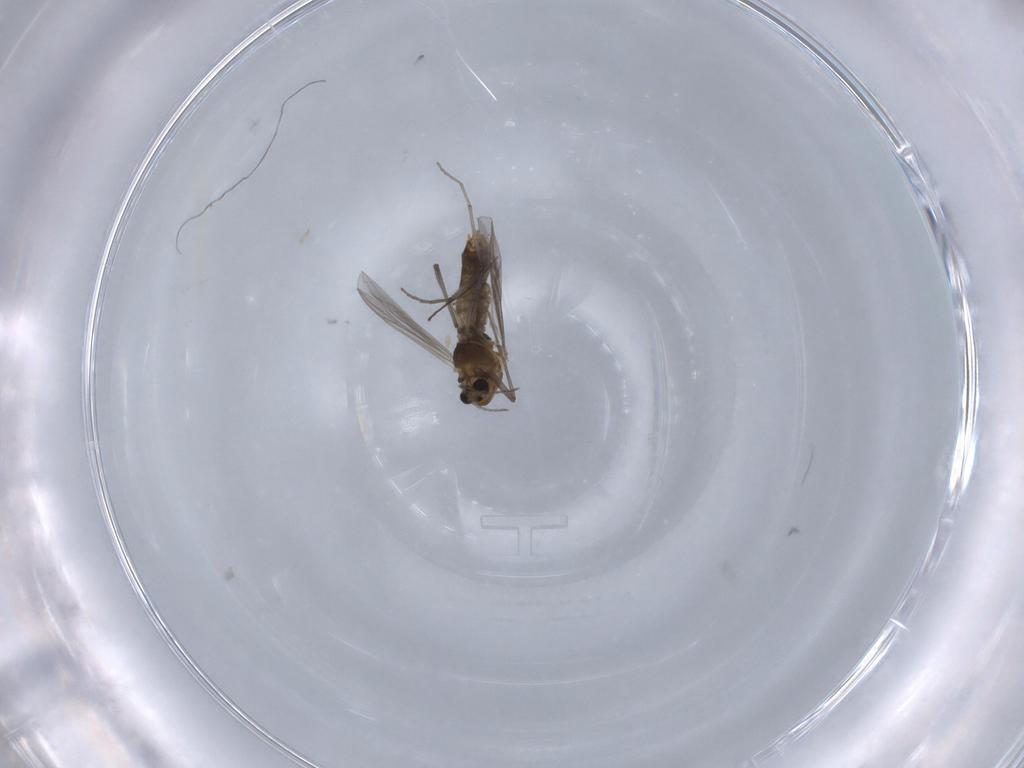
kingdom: Animalia
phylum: Arthropoda
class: Insecta
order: Diptera
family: Chironomidae
